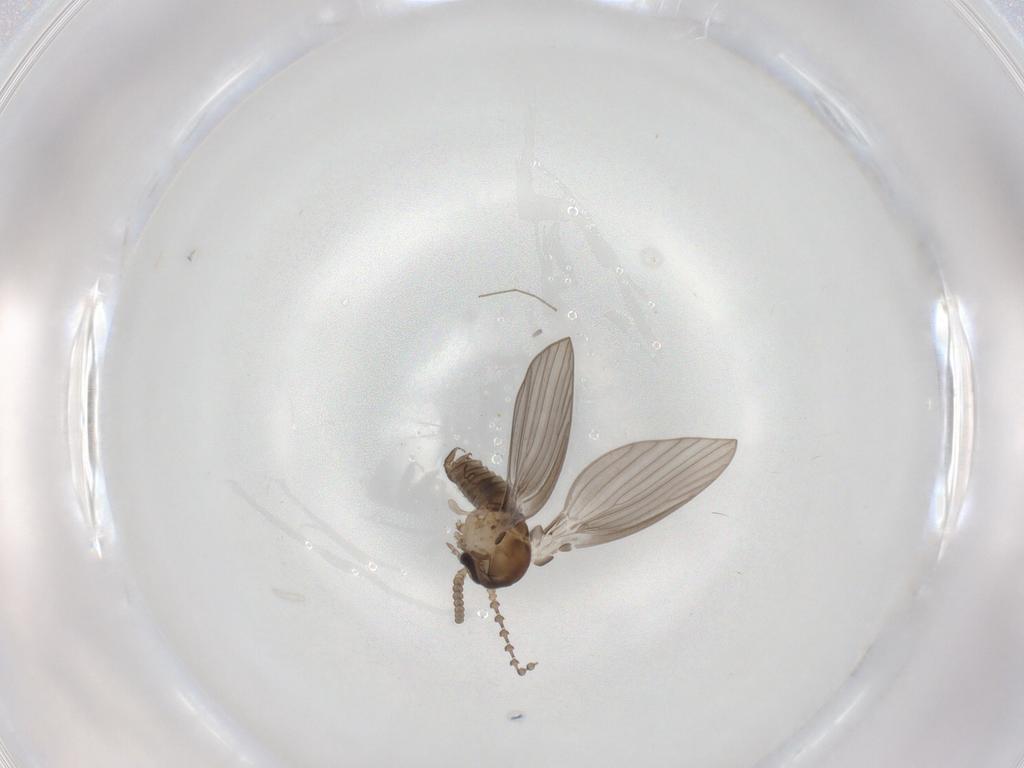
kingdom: Animalia
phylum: Arthropoda
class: Insecta
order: Diptera
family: Psychodidae
